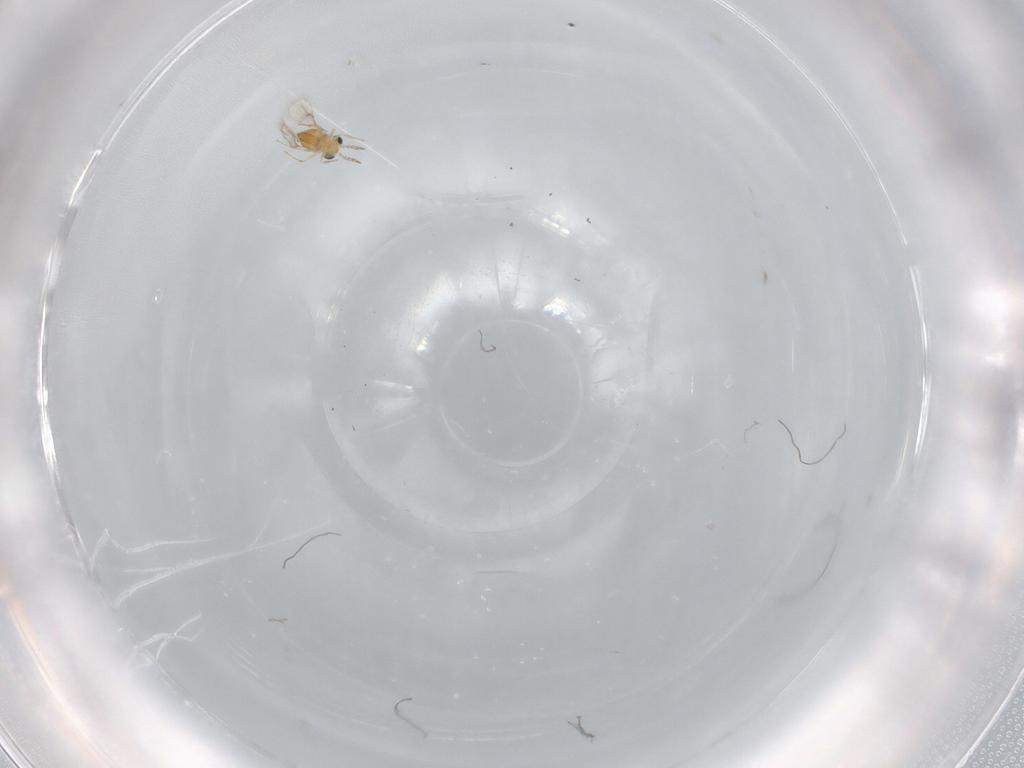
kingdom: Animalia
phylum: Arthropoda
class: Insecta
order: Hymenoptera
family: Trichogrammatidae
